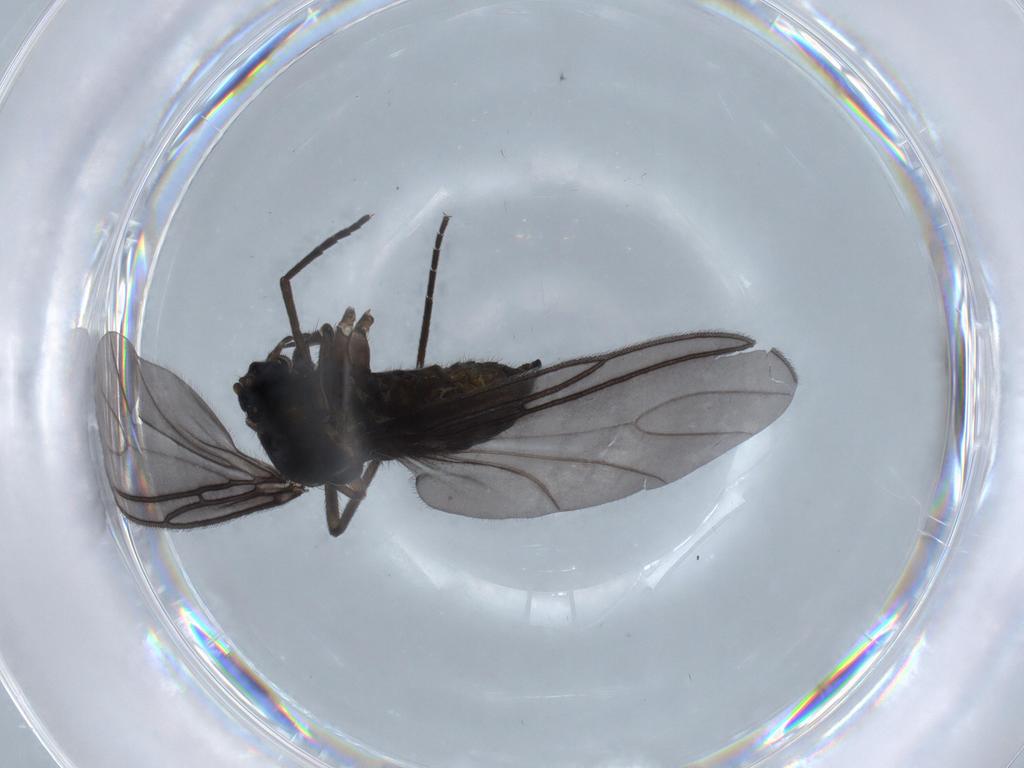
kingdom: Animalia
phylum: Arthropoda
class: Insecta
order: Diptera
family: Sciaridae
